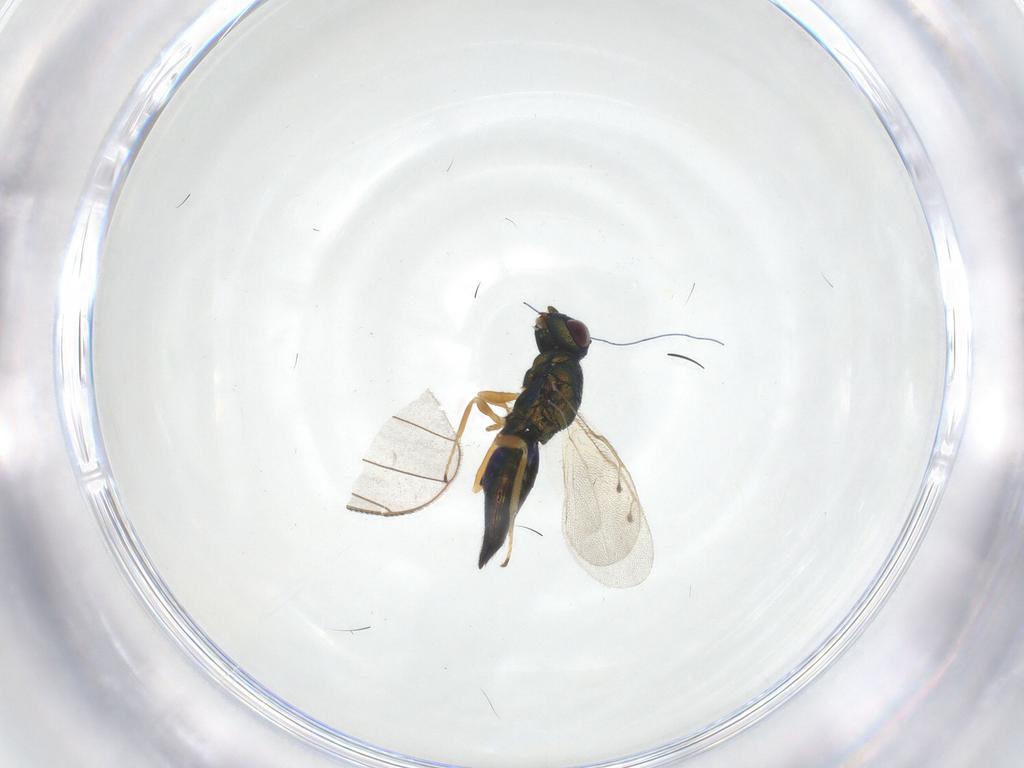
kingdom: Animalia
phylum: Arthropoda
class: Insecta
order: Hymenoptera
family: Pteromalidae
